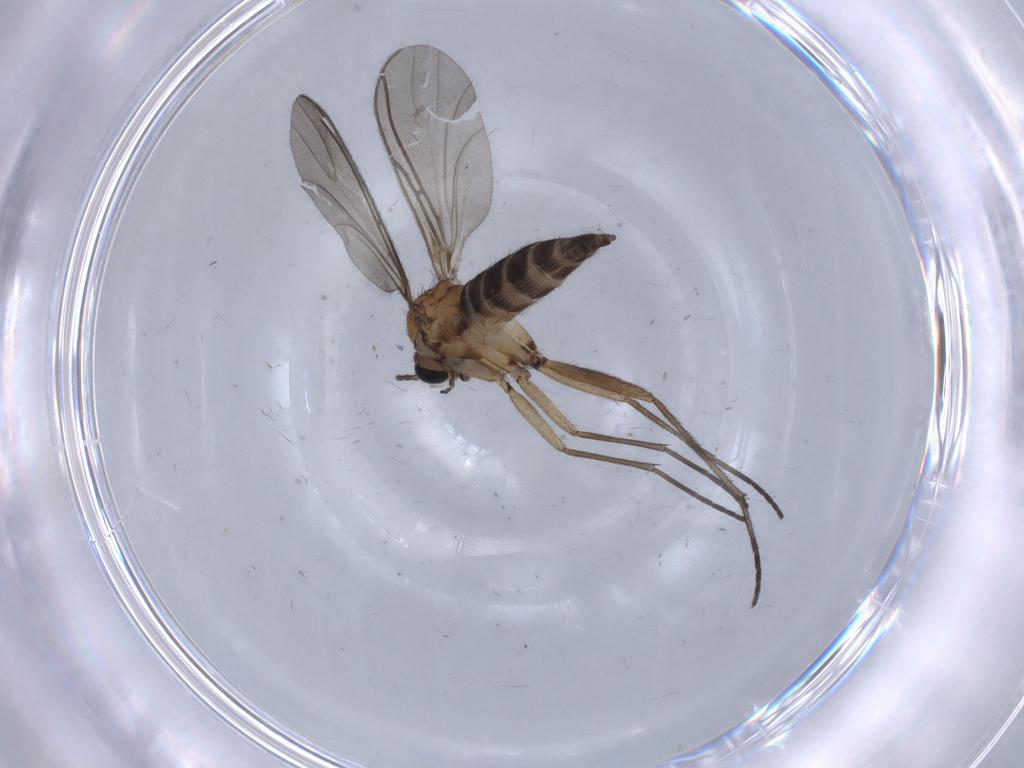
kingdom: Animalia
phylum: Arthropoda
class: Insecta
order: Diptera
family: Sciaridae
